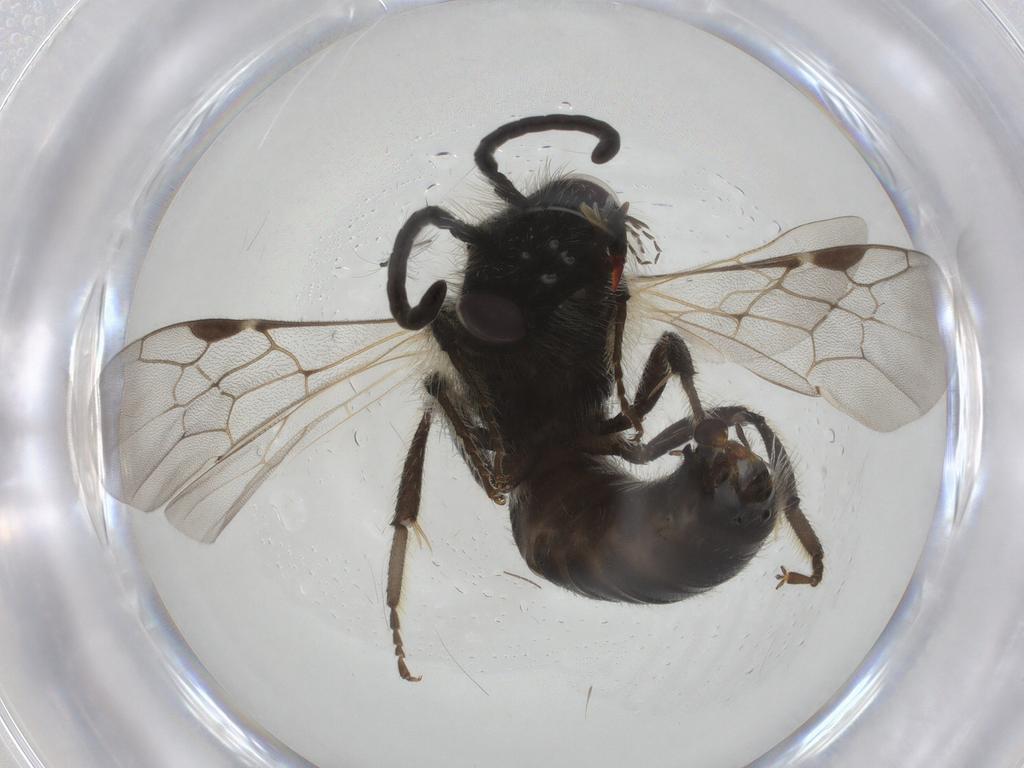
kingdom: Animalia
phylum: Arthropoda
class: Insecta
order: Hymenoptera
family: Andrenidae
